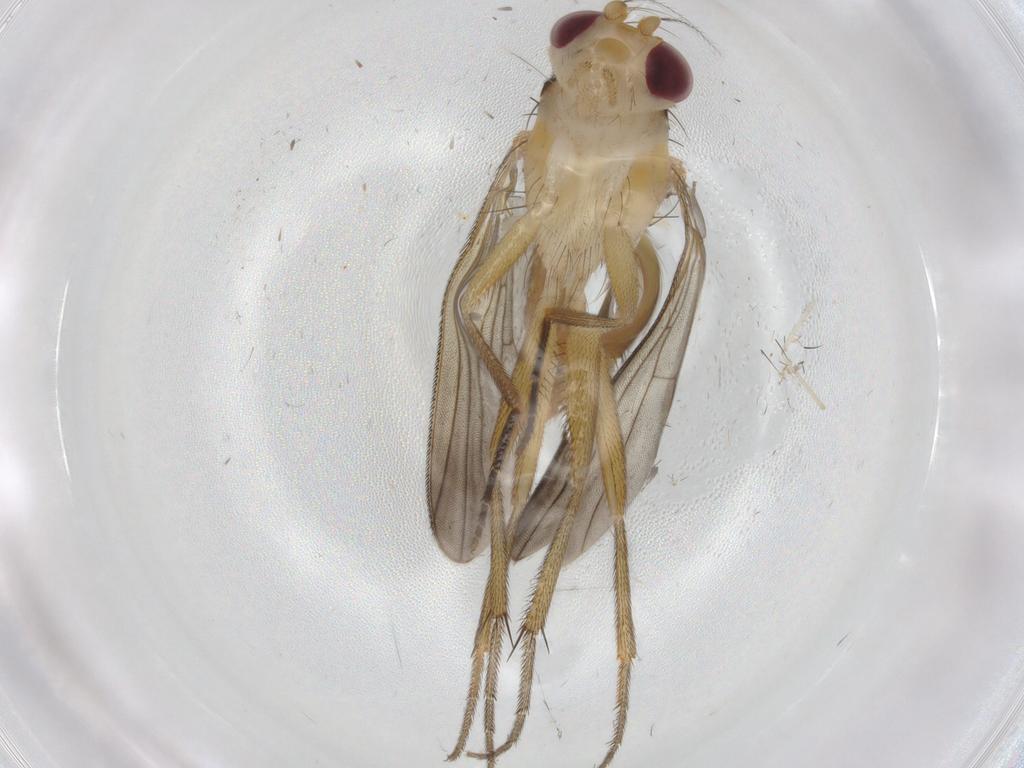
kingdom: Animalia
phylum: Arthropoda
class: Insecta
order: Diptera
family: Clusiidae
